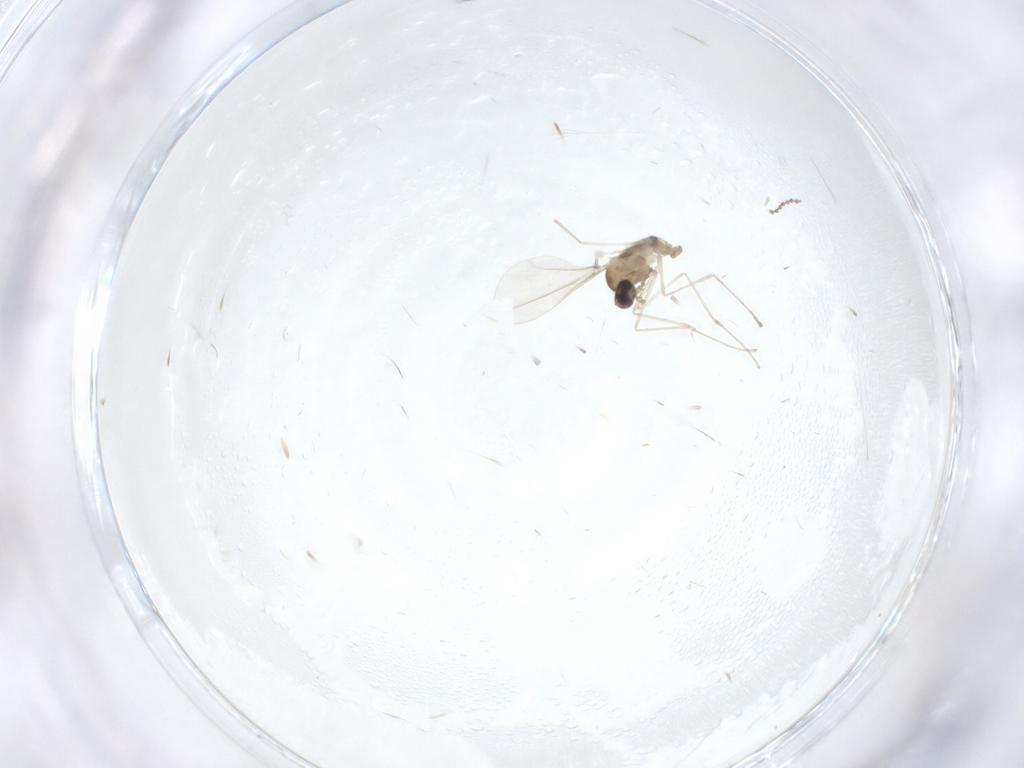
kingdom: Animalia
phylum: Arthropoda
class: Insecta
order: Diptera
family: Cecidomyiidae
